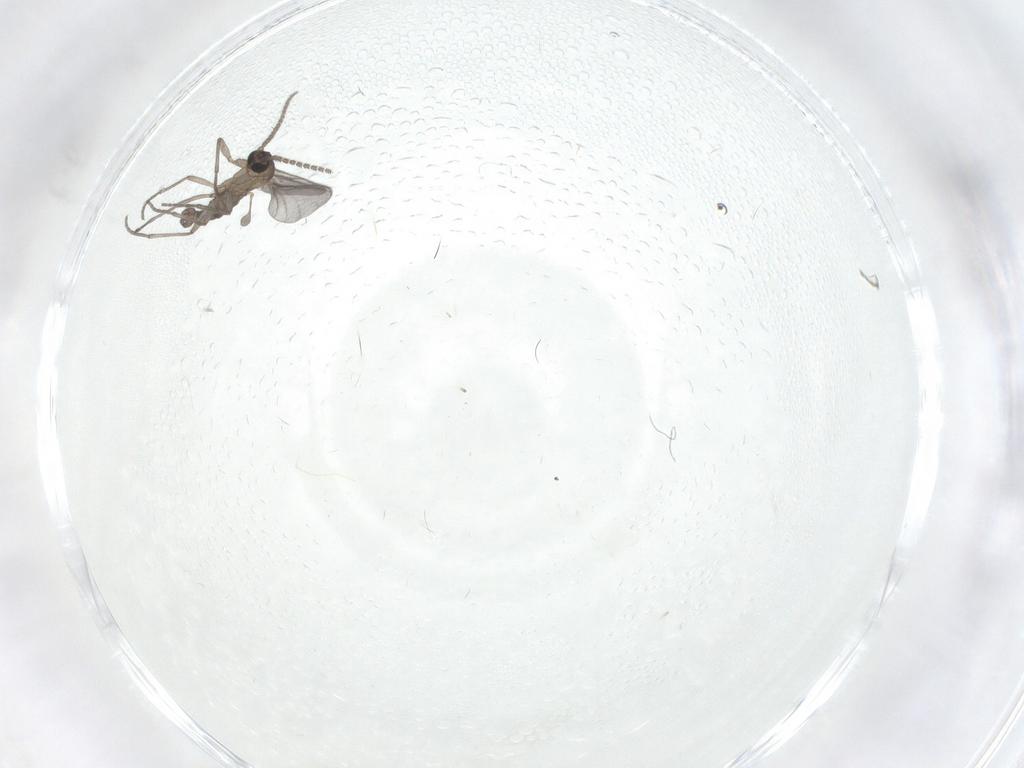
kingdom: Animalia
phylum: Arthropoda
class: Insecta
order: Diptera
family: Sciaridae
